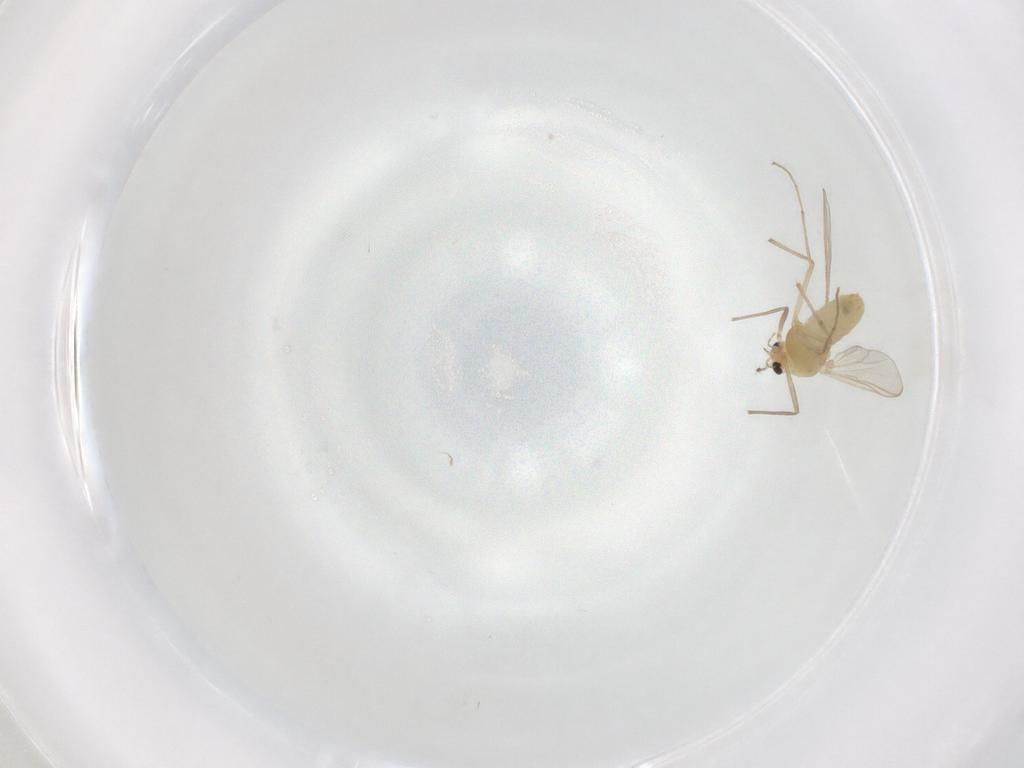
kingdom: Animalia
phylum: Arthropoda
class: Insecta
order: Diptera
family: Chironomidae
